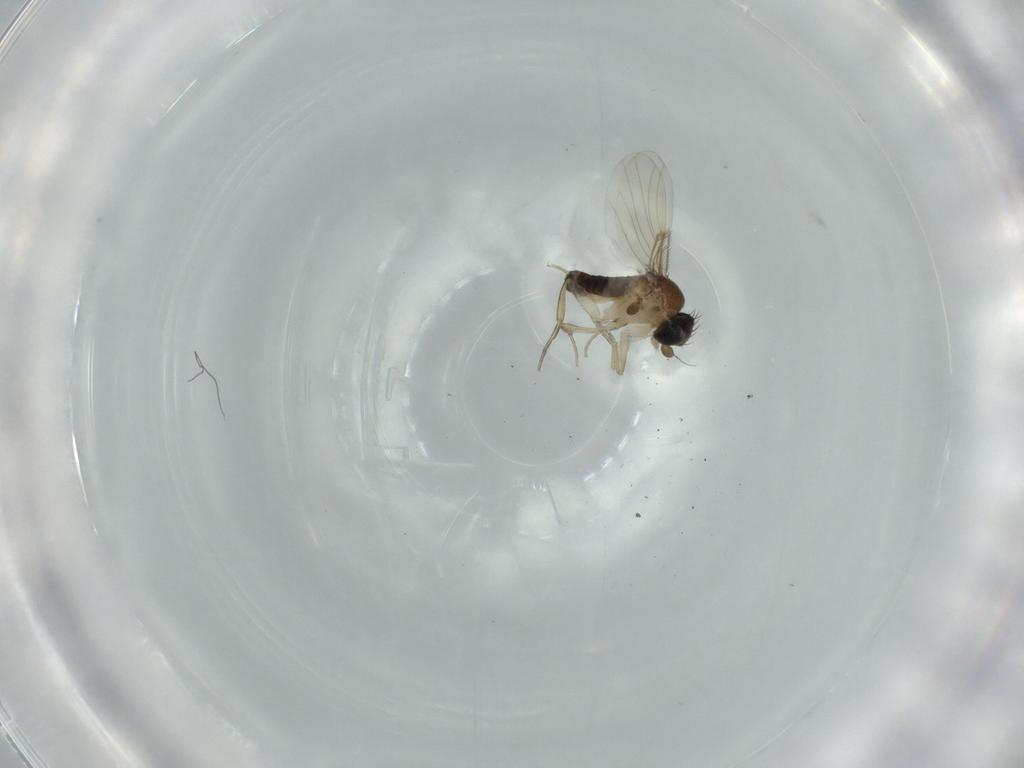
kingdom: Animalia
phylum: Arthropoda
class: Insecta
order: Diptera
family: Phoridae
